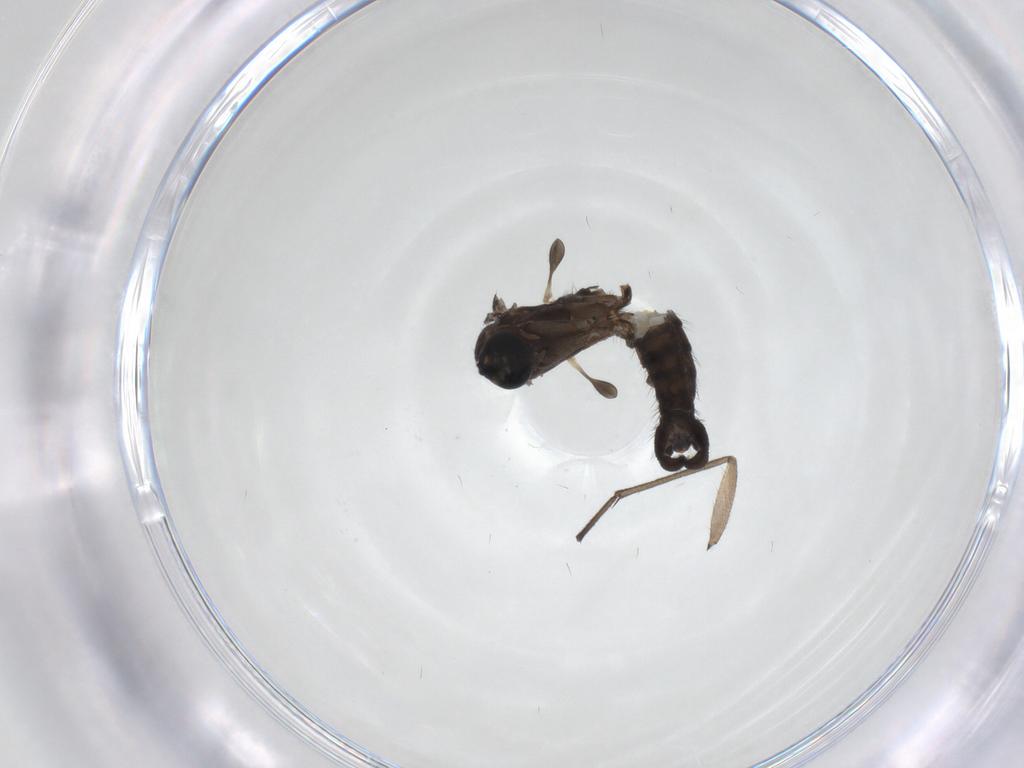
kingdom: Animalia
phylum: Arthropoda
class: Insecta
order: Diptera
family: Sciaridae
